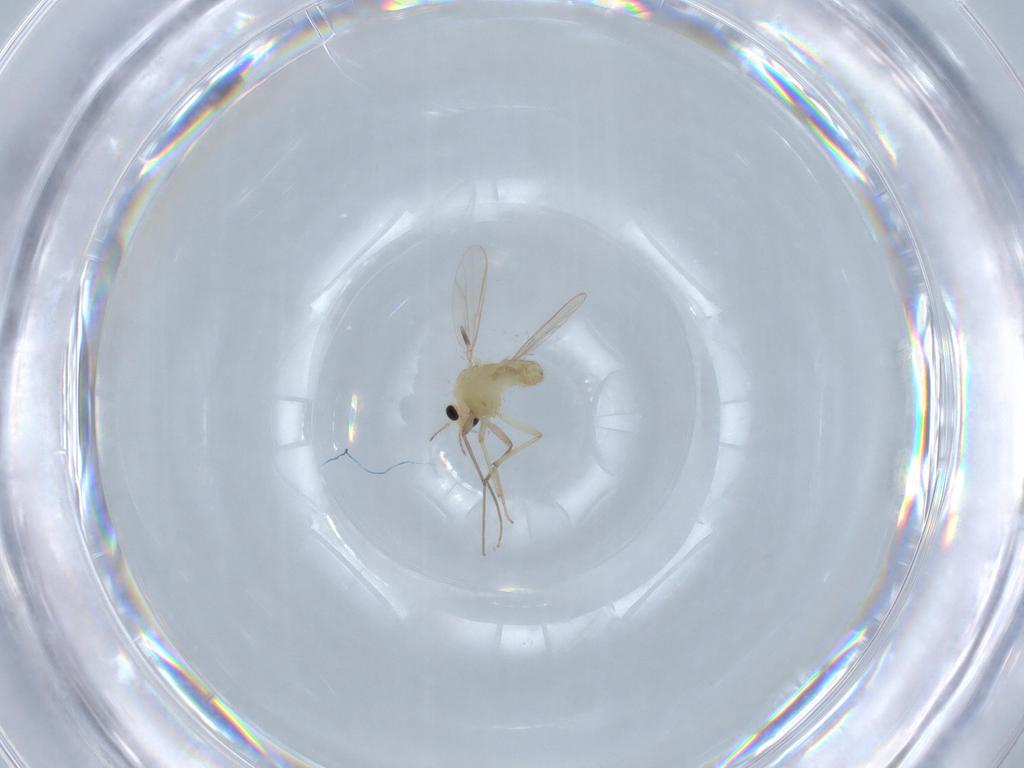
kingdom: Animalia
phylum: Arthropoda
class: Insecta
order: Diptera
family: Chironomidae
